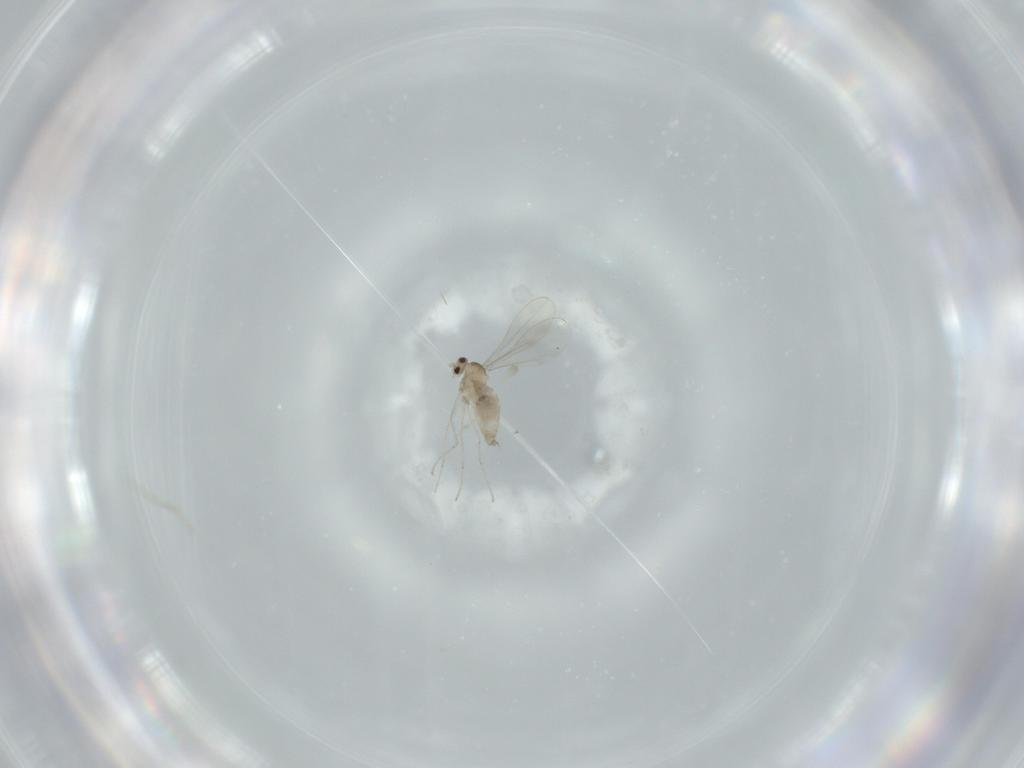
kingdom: Animalia
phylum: Arthropoda
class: Insecta
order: Diptera
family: Cecidomyiidae
